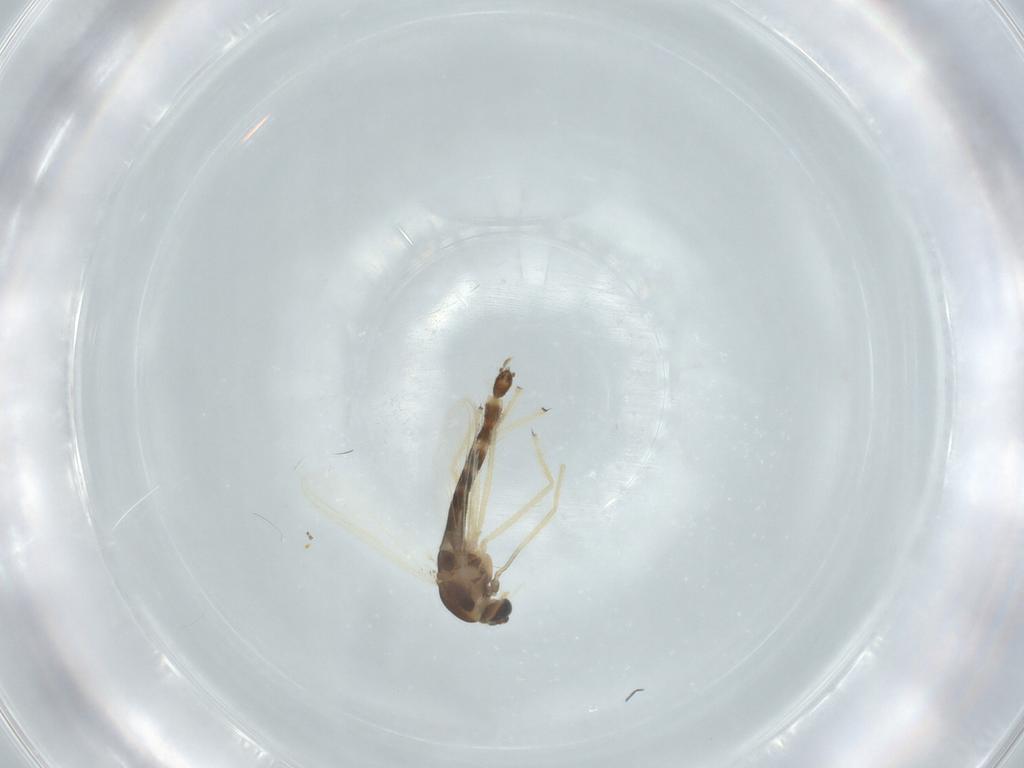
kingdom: Animalia
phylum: Arthropoda
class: Insecta
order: Diptera
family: Chironomidae
